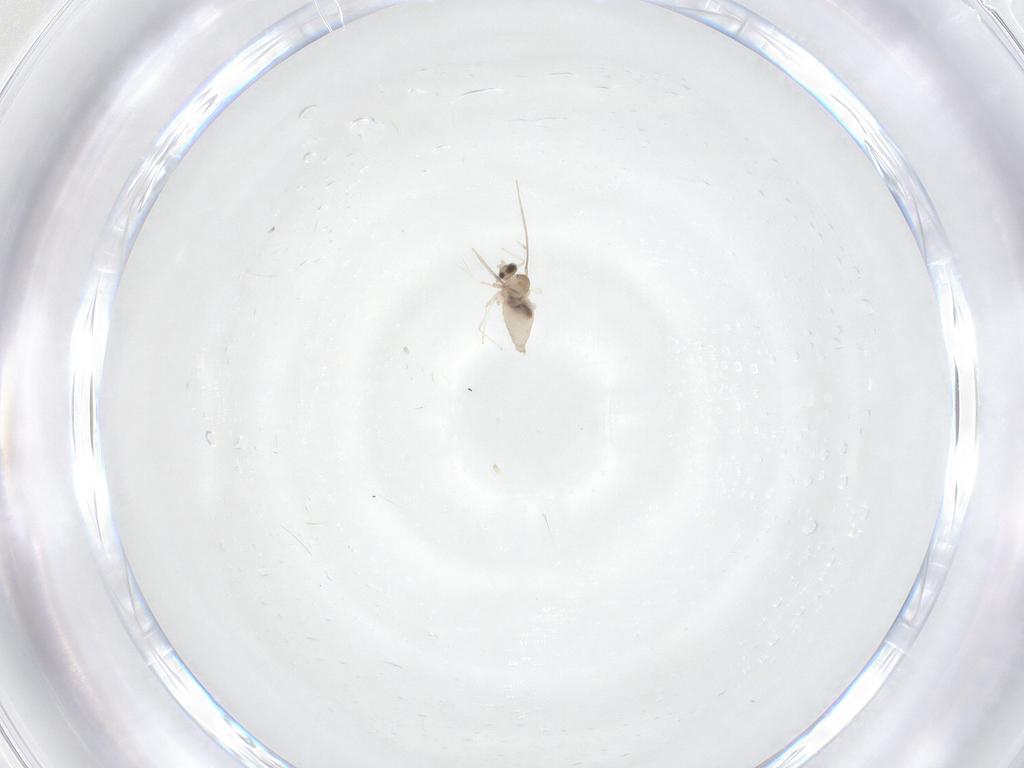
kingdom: Animalia
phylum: Arthropoda
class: Insecta
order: Diptera
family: Cecidomyiidae
